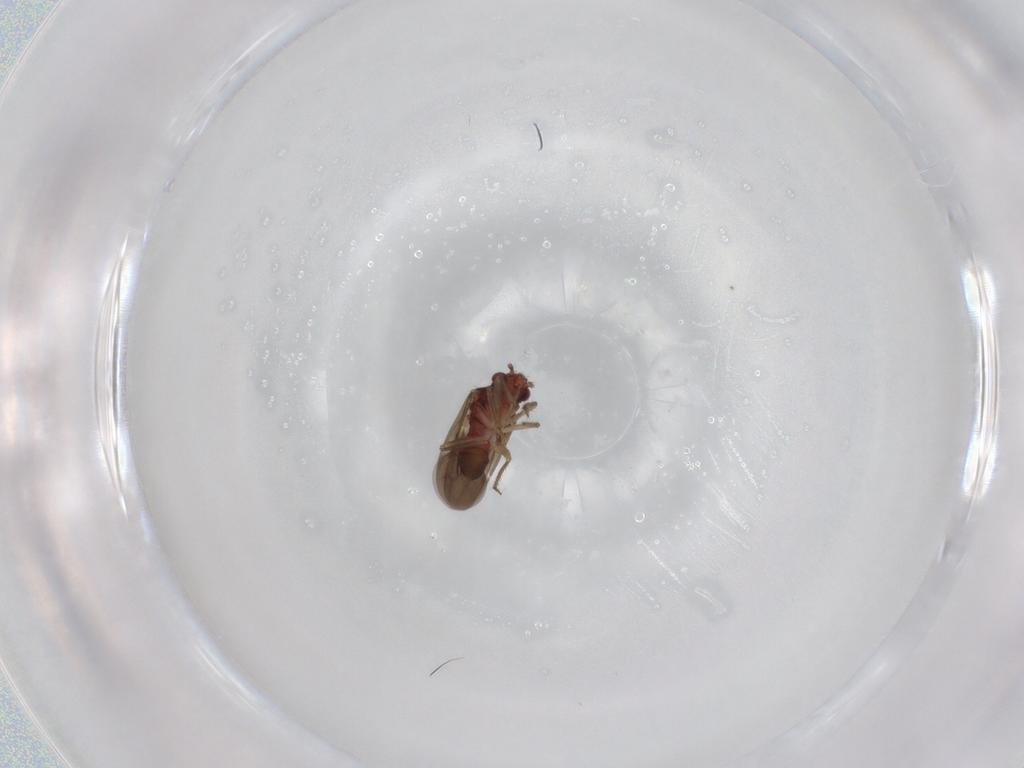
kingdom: Animalia
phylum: Arthropoda
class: Insecta
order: Hemiptera
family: Ceratocombidae
